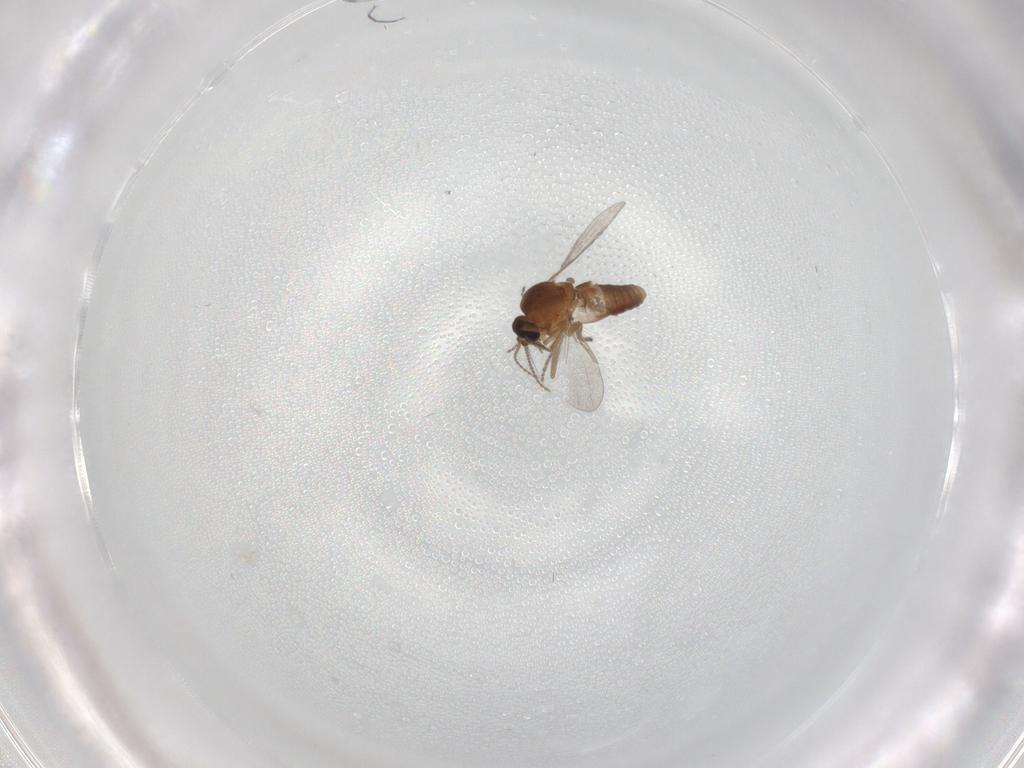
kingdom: Animalia
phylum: Arthropoda
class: Insecta
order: Diptera
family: Ceratopogonidae
